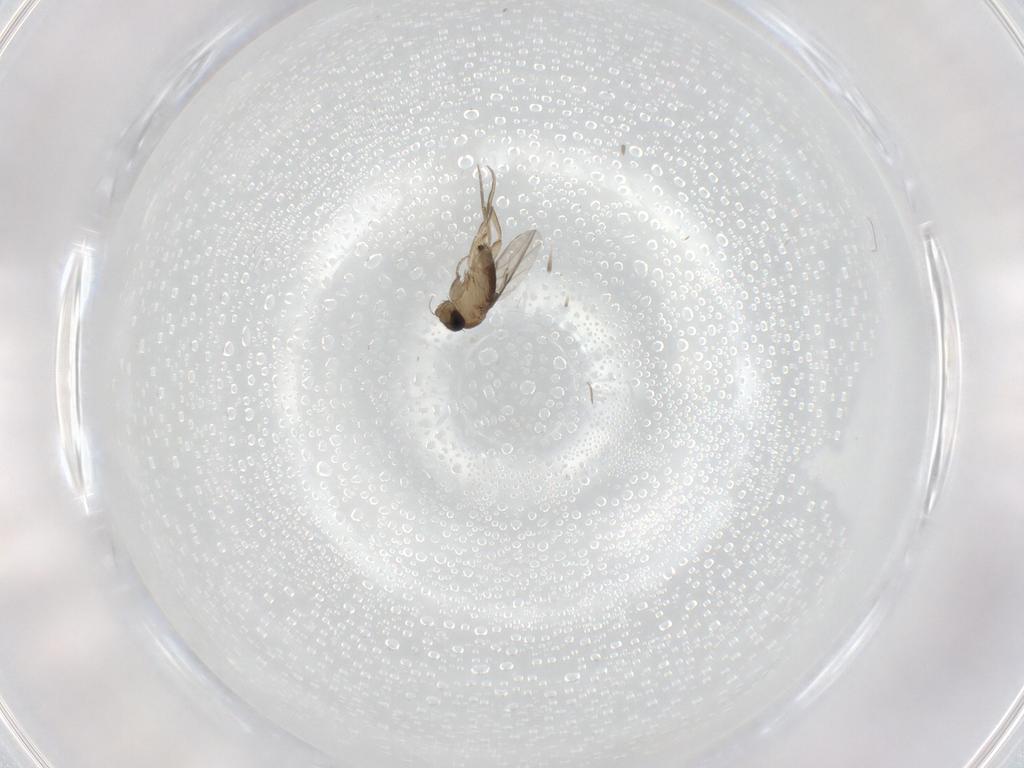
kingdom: Animalia
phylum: Arthropoda
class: Insecta
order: Diptera
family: Phoridae
